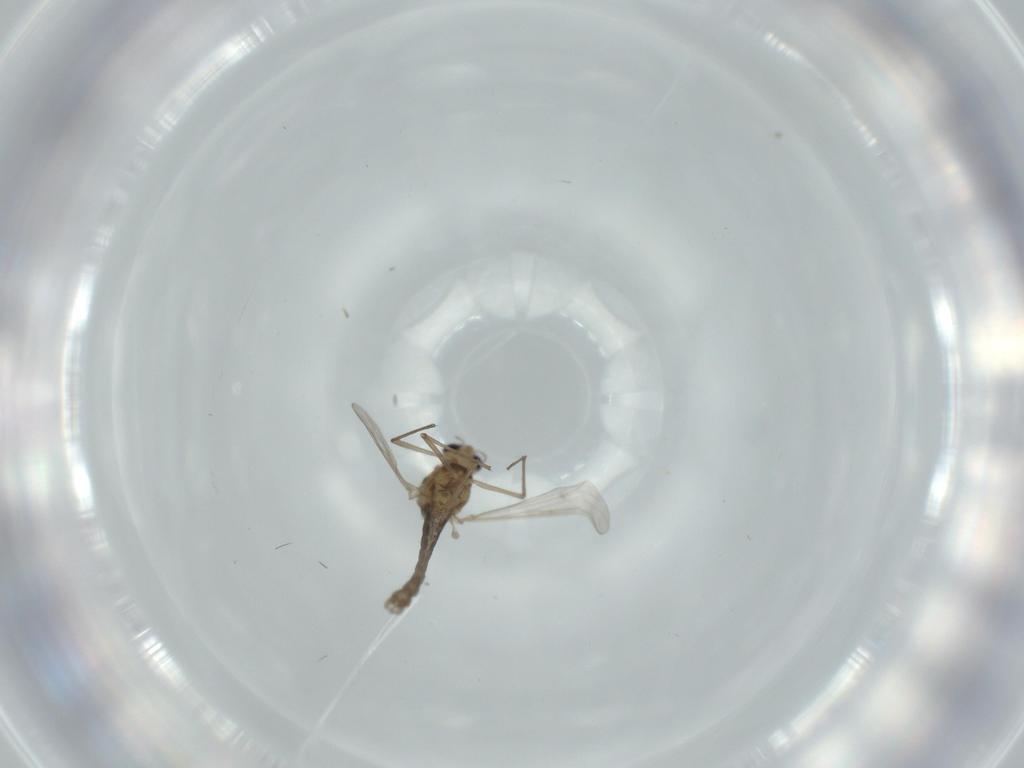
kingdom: Animalia
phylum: Arthropoda
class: Insecta
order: Diptera
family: Chironomidae
